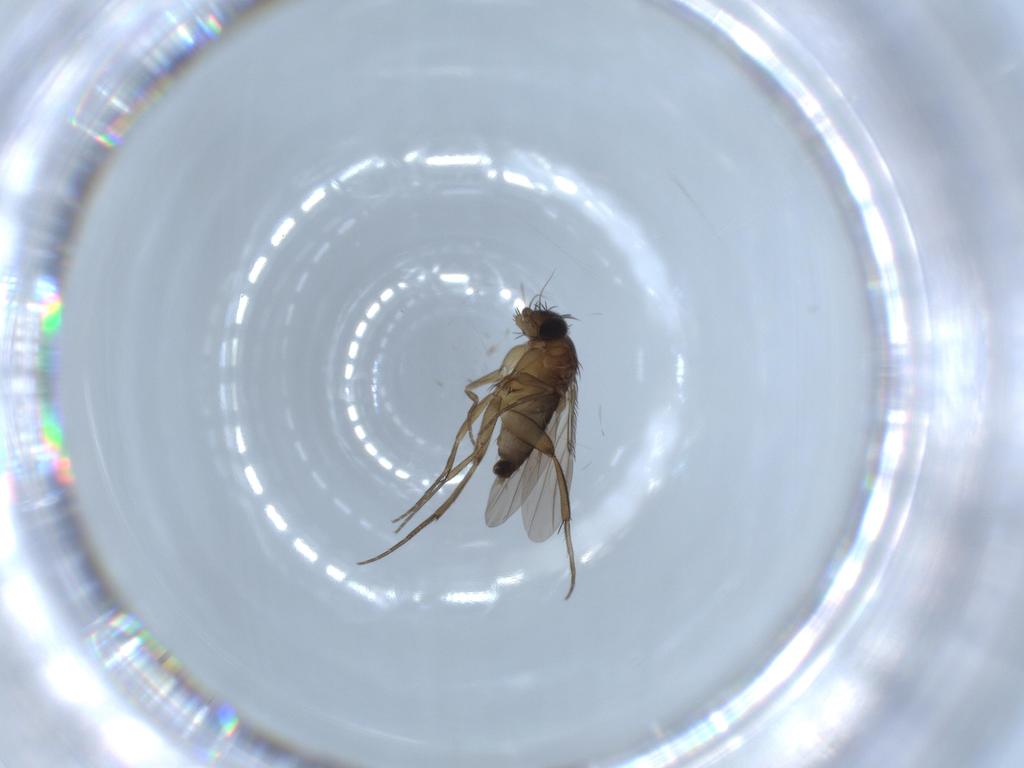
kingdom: Animalia
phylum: Arthropoda
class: Insecta
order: Diptera
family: Phoridae
